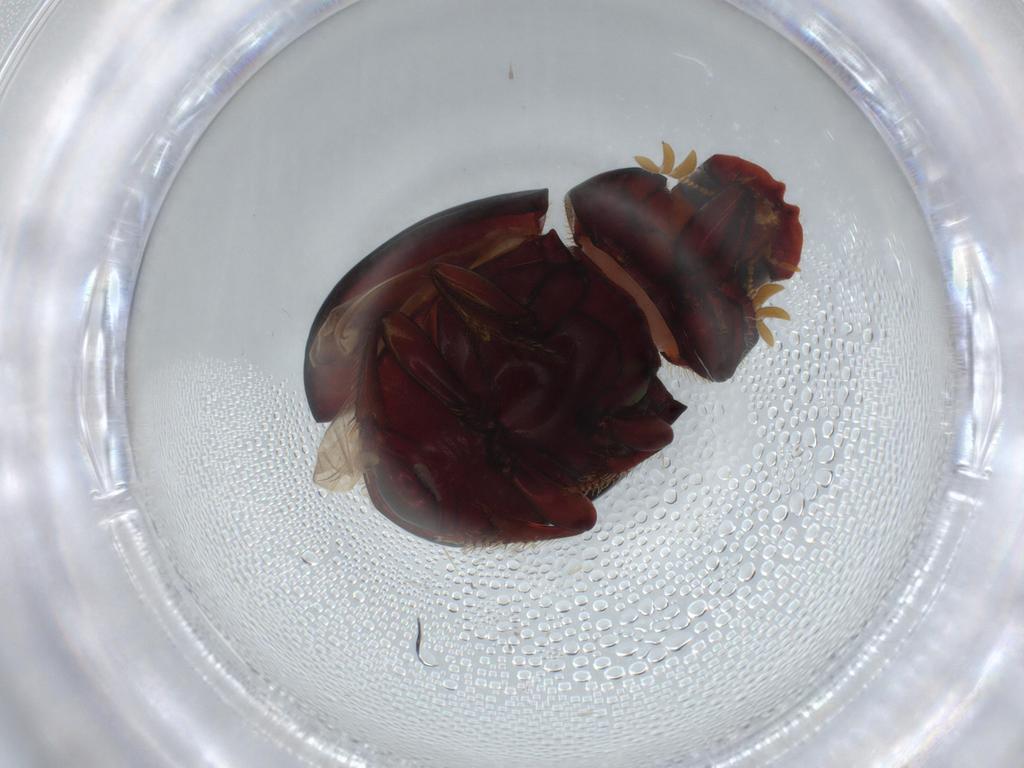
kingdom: Animalia
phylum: Arthropoda
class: Insecta
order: Coleoptera
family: Scarabaeidae
